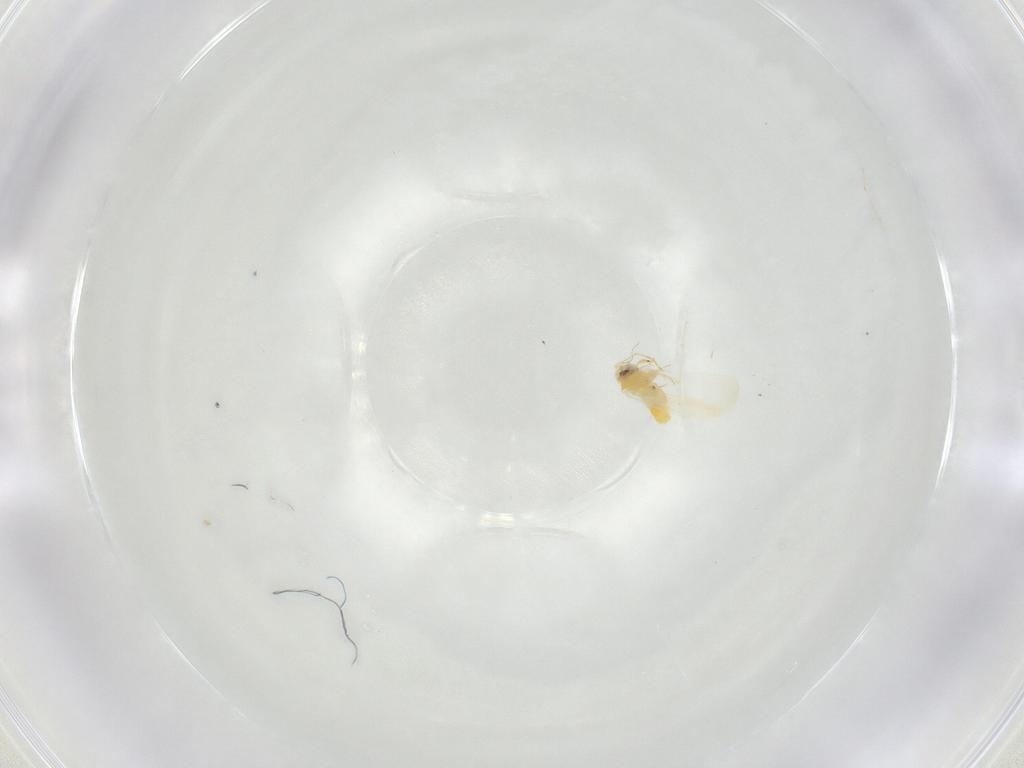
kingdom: Animalia
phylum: Arthropoda
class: Insecta
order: Hemiptera
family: Aleyrodidae
